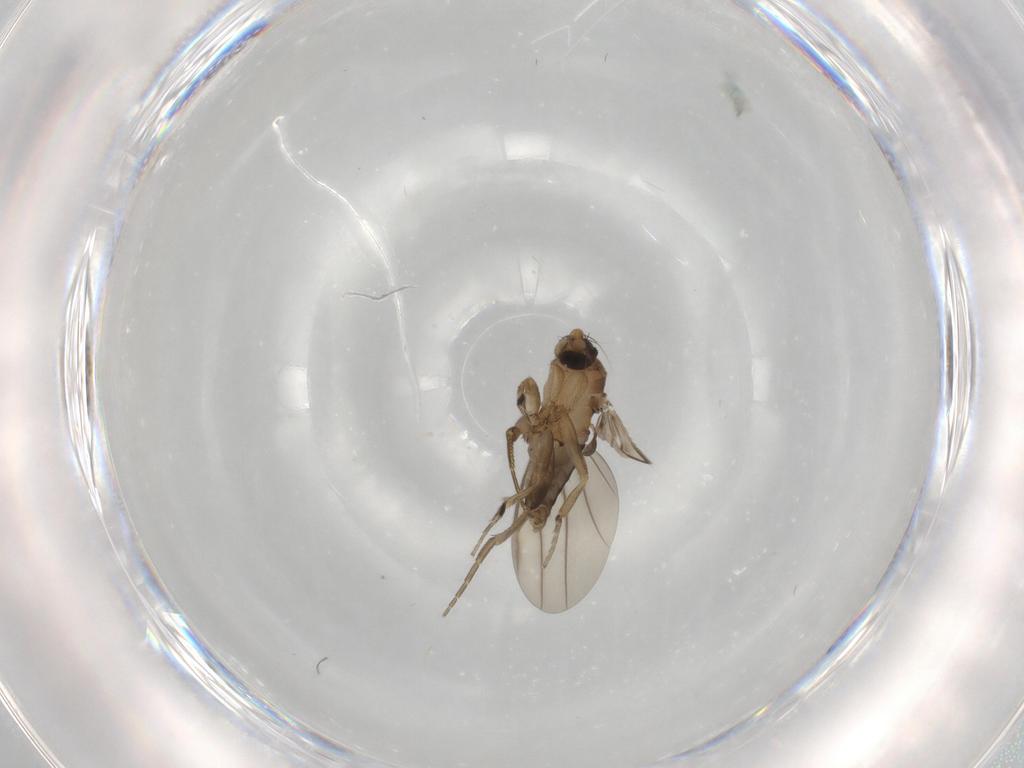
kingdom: Animalia
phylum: Arthropoda
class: Insecta
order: Diptera
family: Phoridae
